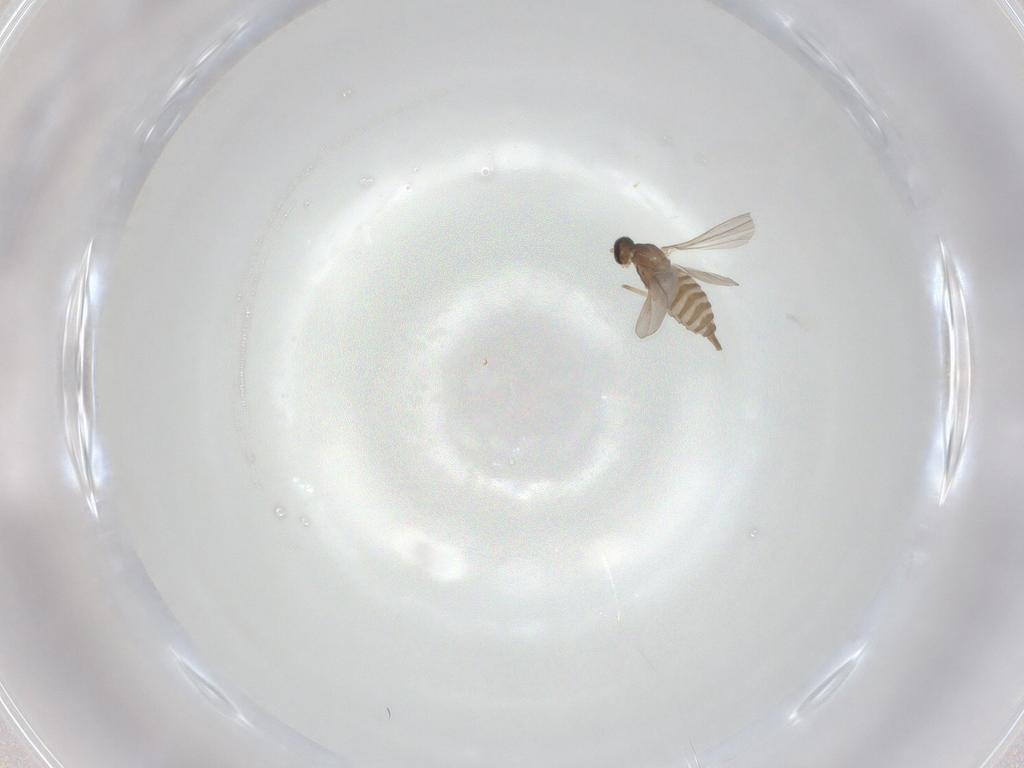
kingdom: Animalia
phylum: Arthropoda
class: Insecta
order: Diptera
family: Cecidomyiidae
